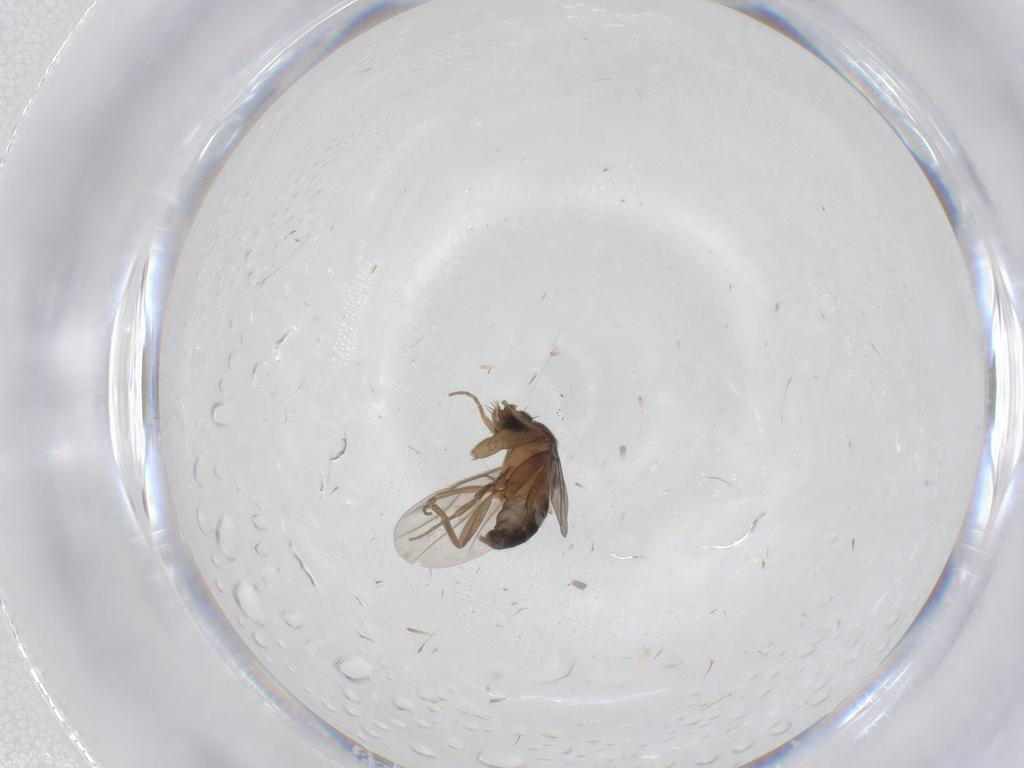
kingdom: Animalia
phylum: Arthropoda
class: Insecta
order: Diptera
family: Phoridae
